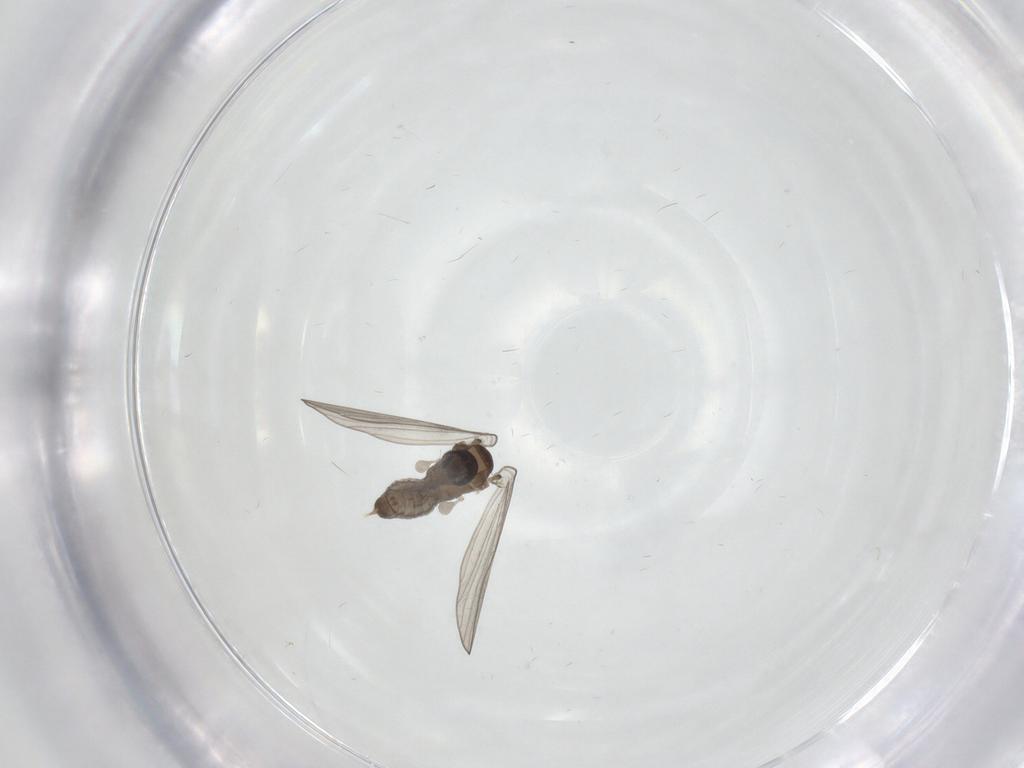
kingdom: Animalia
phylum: Arthropoda
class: Insecta
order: Diptera
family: Psychodidae
